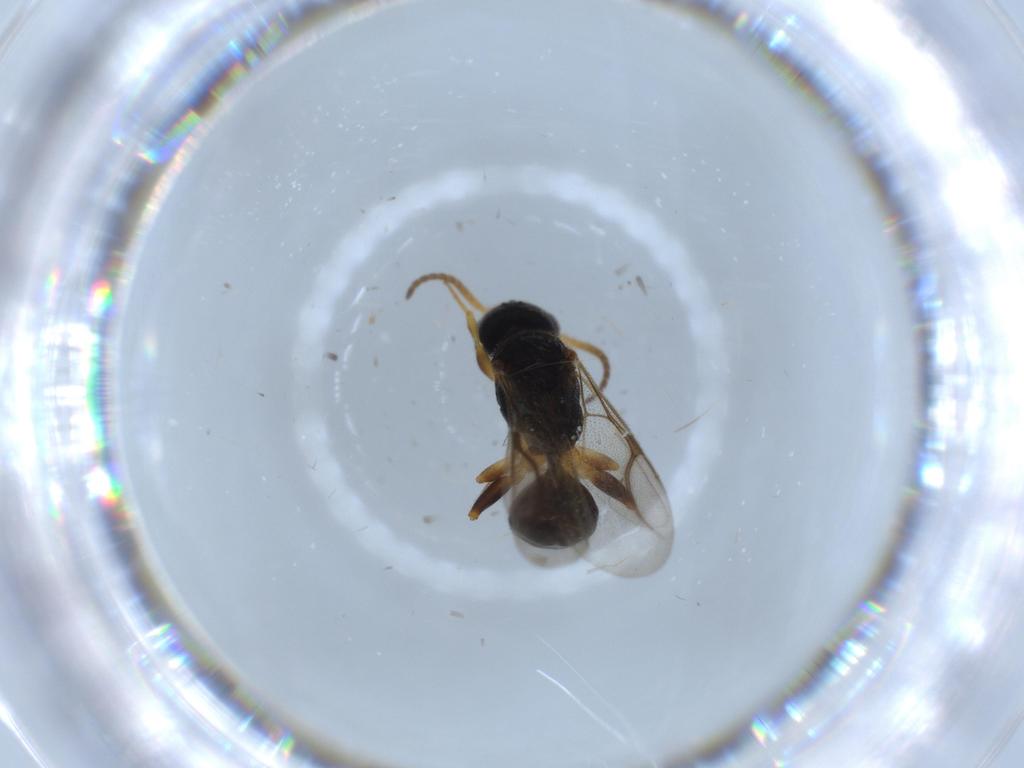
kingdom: Animalia
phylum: Arthropoda
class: Insecta
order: Hymenoptera
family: Bethylidae
